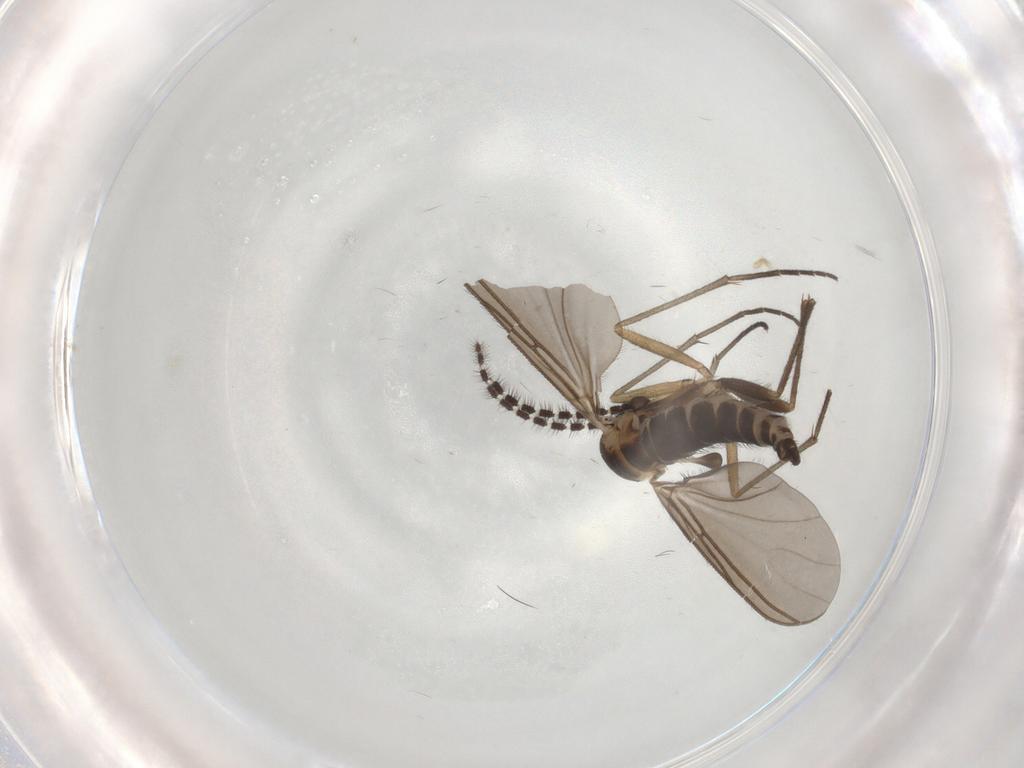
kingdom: Animalia
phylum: Arthropoda
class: Insecta
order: Diptera
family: Sciaridae
